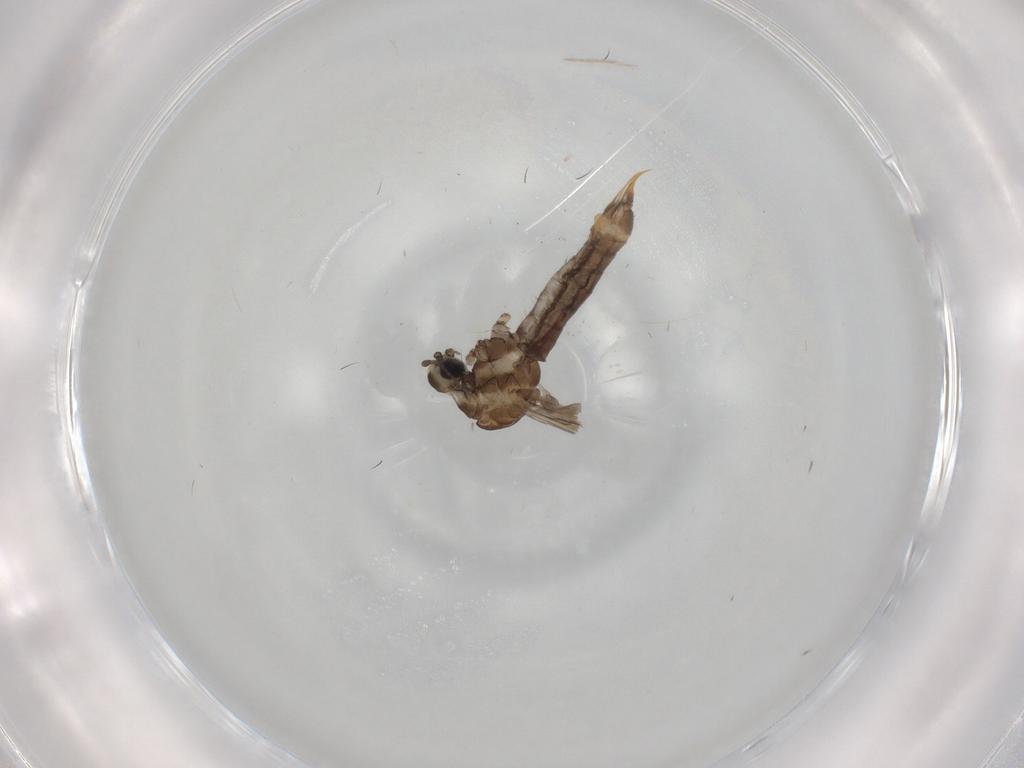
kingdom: Animalia
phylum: Arthropoda
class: Insecta
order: Diptera
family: Limoniidae
